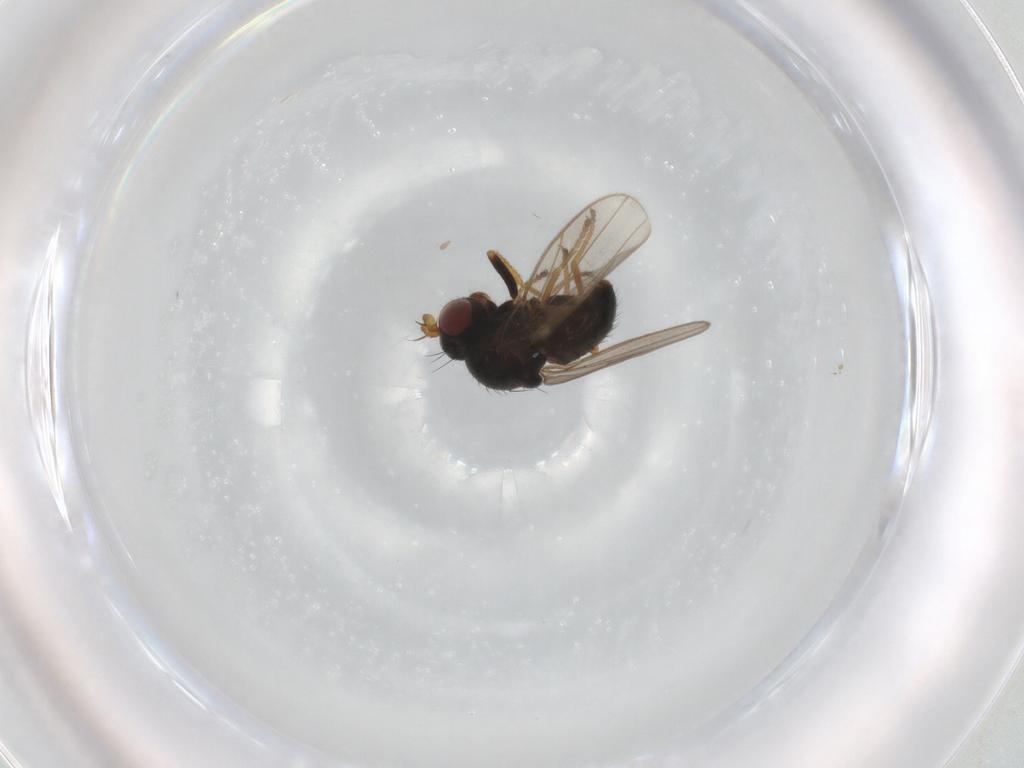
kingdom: Animalia
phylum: Arthropoda
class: Insecta
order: Diptera
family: Ephydridae
